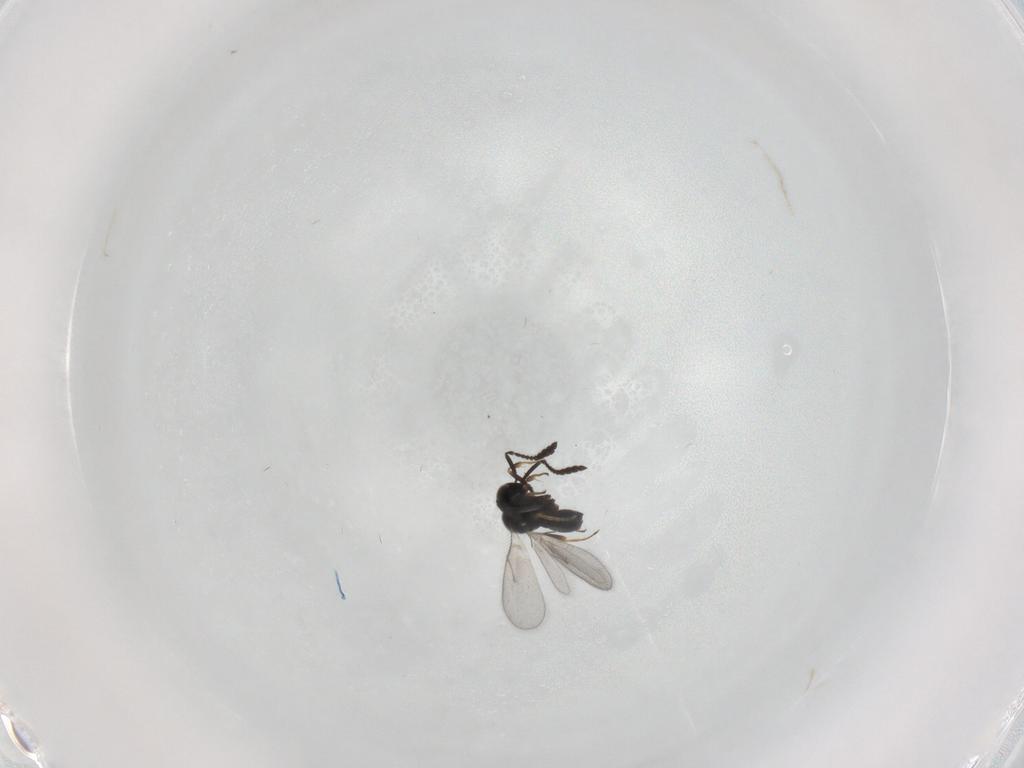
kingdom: Animalia
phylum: Arthropoda
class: Insecta
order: Hymenoptera
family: Scelionidae
